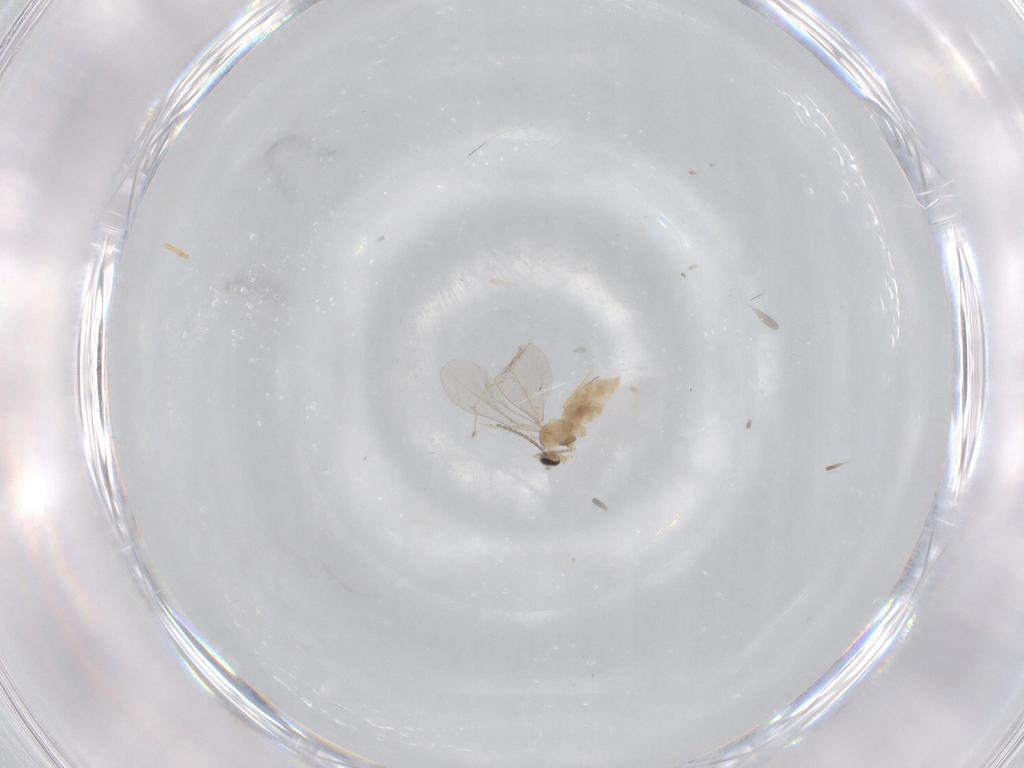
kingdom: Animalia
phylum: Arthropoda
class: Insecta
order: Diptera
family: Cecidomyiidae
